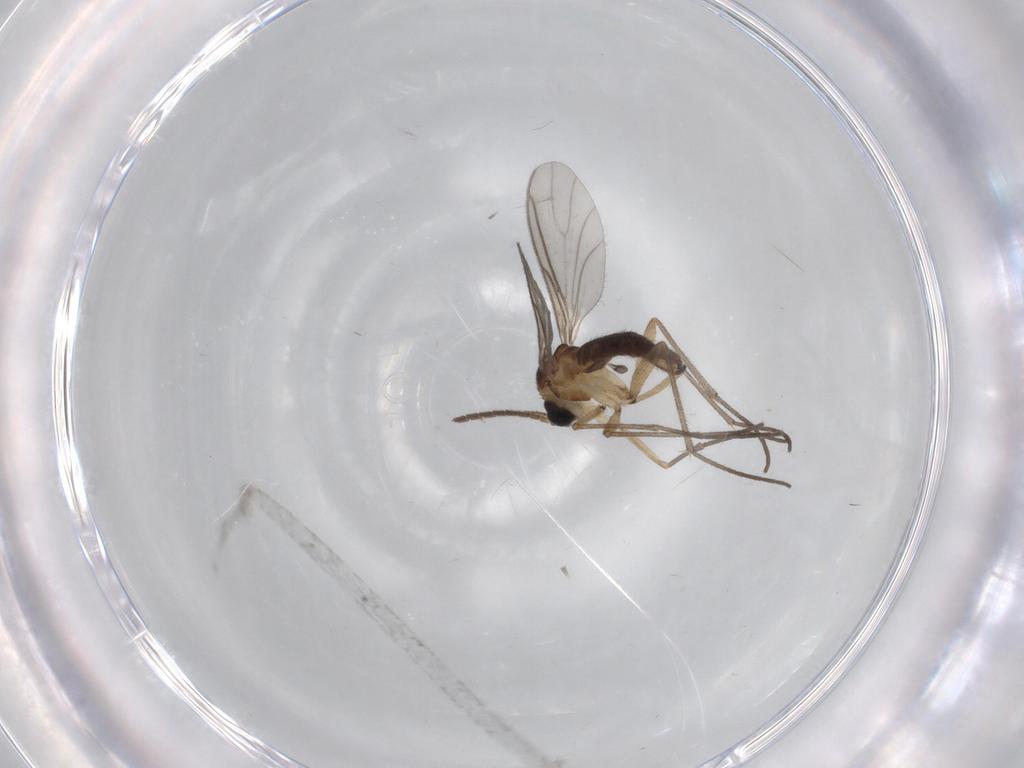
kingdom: Animalia
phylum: Arthropoda
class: Insecta
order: Diptera
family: Sciaridae
